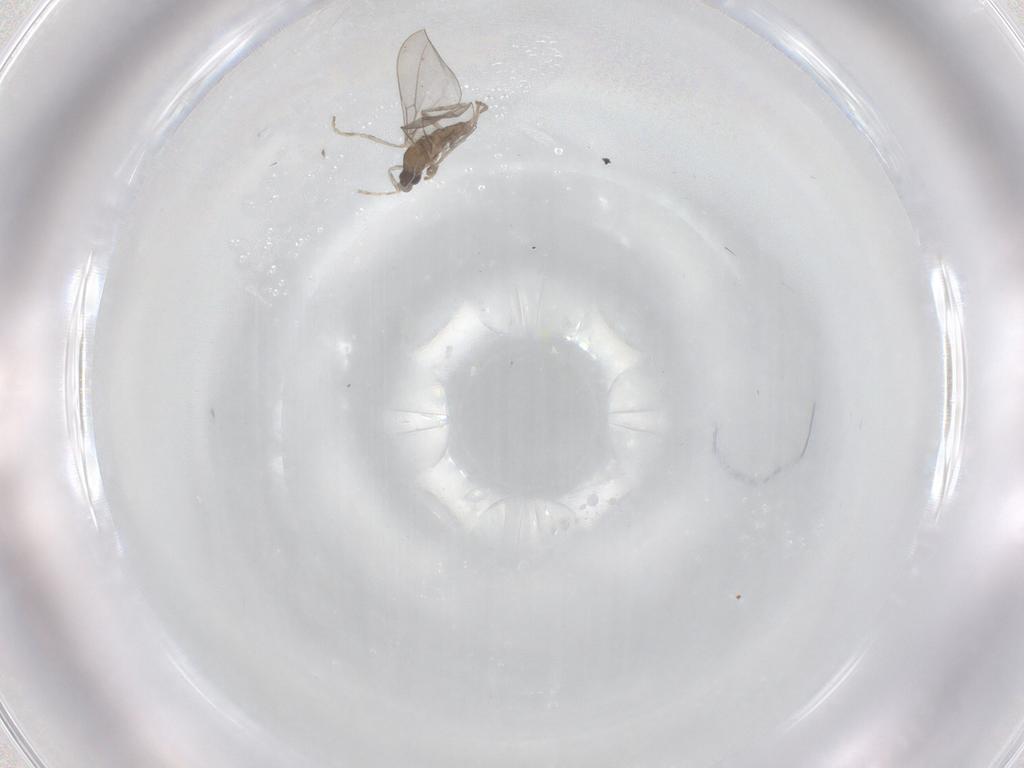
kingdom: Animalia
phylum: Arthropoda
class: Insecta
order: Diptera
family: Cecidomyiidae
